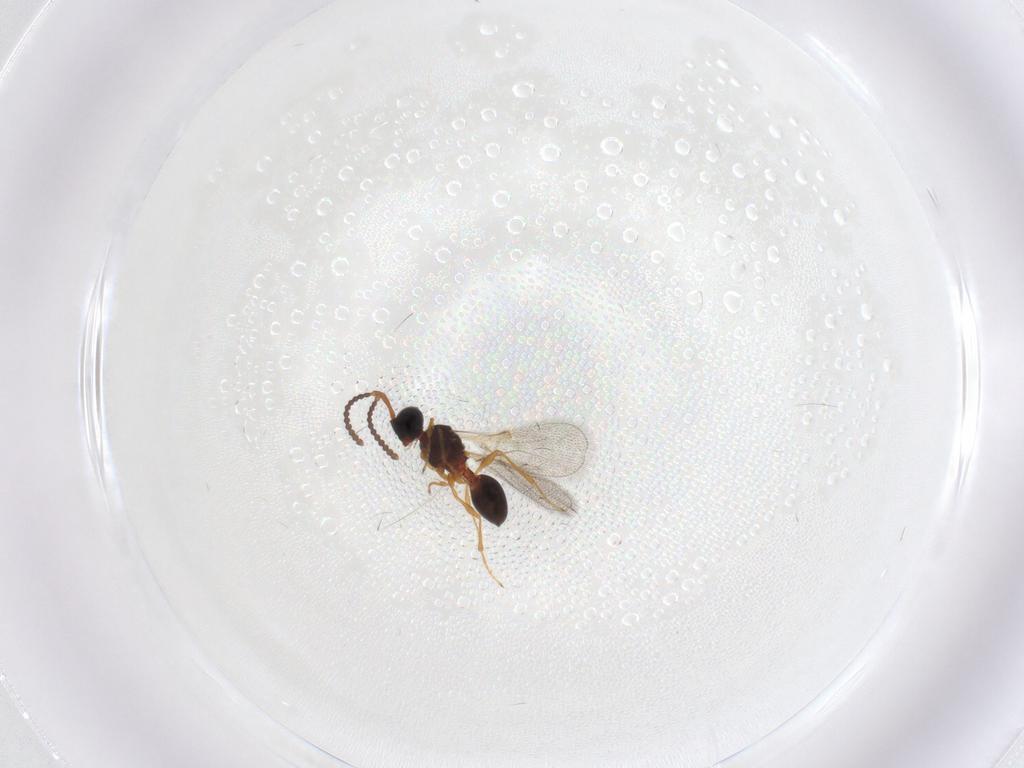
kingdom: Animalia
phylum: Arthropoda
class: Insecta
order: Hymenoptera
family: Diapriidae
